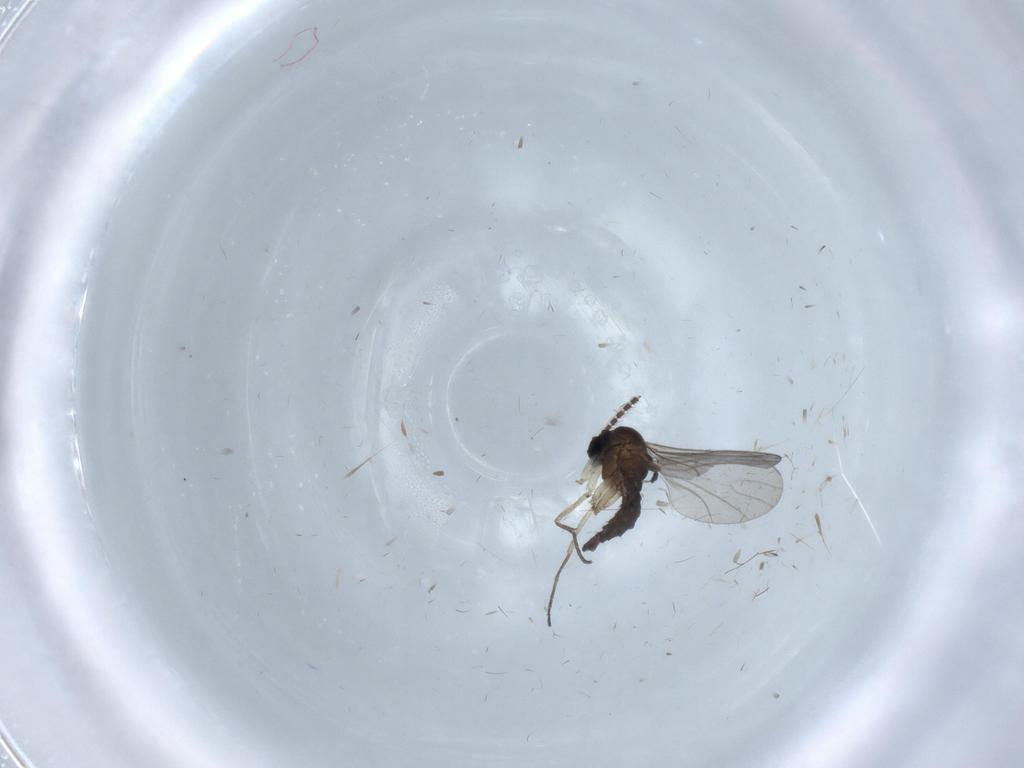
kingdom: Animalia
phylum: Arthropoda
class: Insecta
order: Diptera
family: Sciaridae
